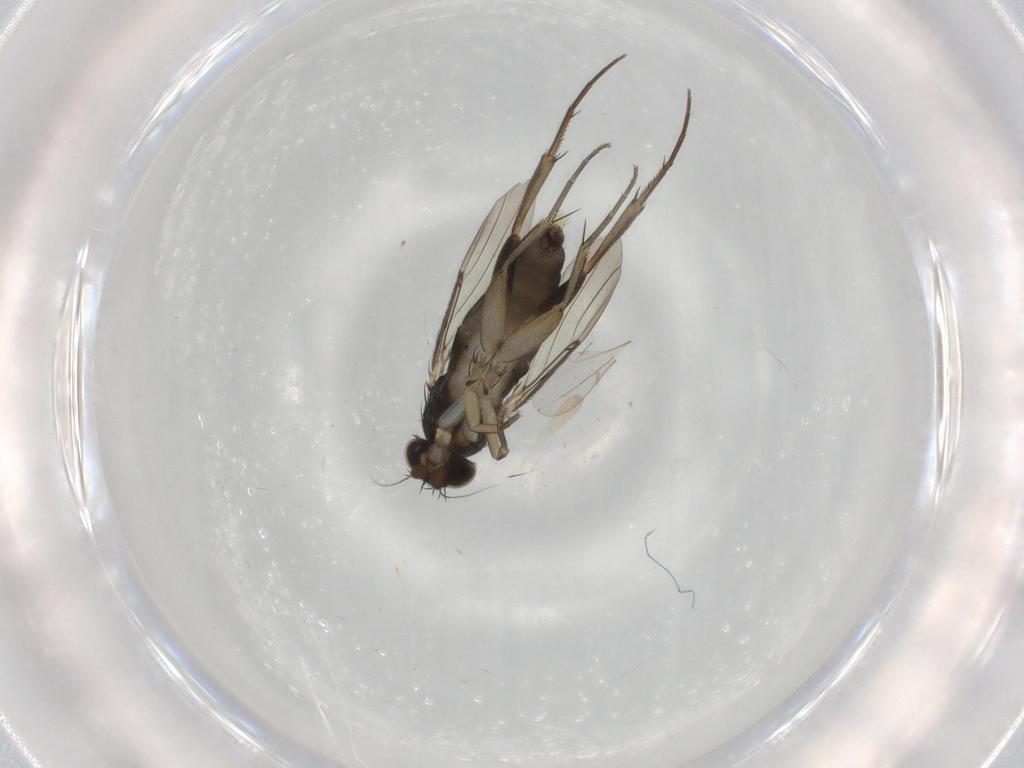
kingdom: Animalia
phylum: Arthropoda
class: Insecta
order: Diptera
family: Phoridae
